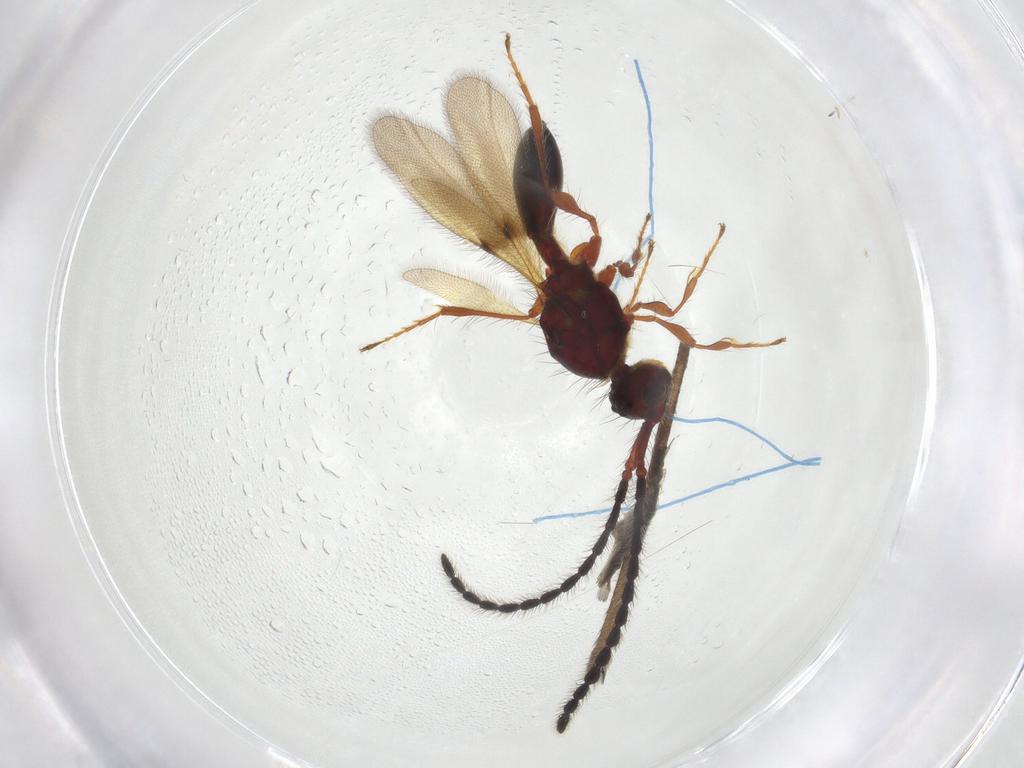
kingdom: Animalia
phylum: Arthropoda
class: Insecta
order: Hymenoptera
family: Diapriidae
